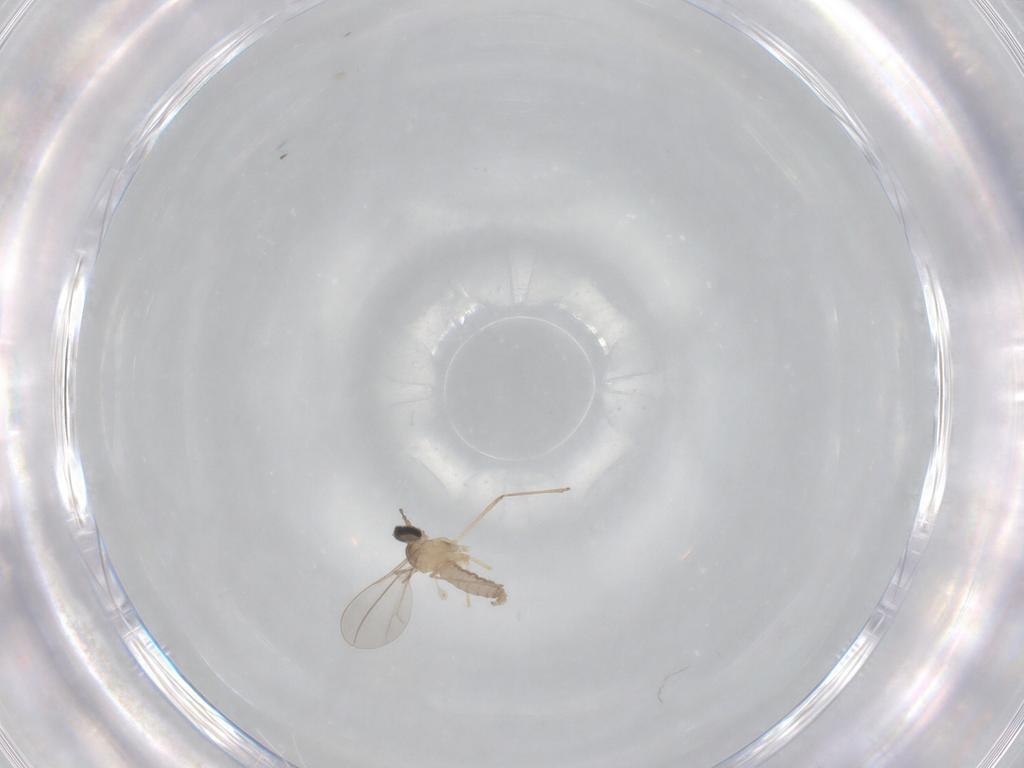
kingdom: Animalia
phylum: Arthropoda
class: Insecta
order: Diptera
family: Cecidomyiidae
